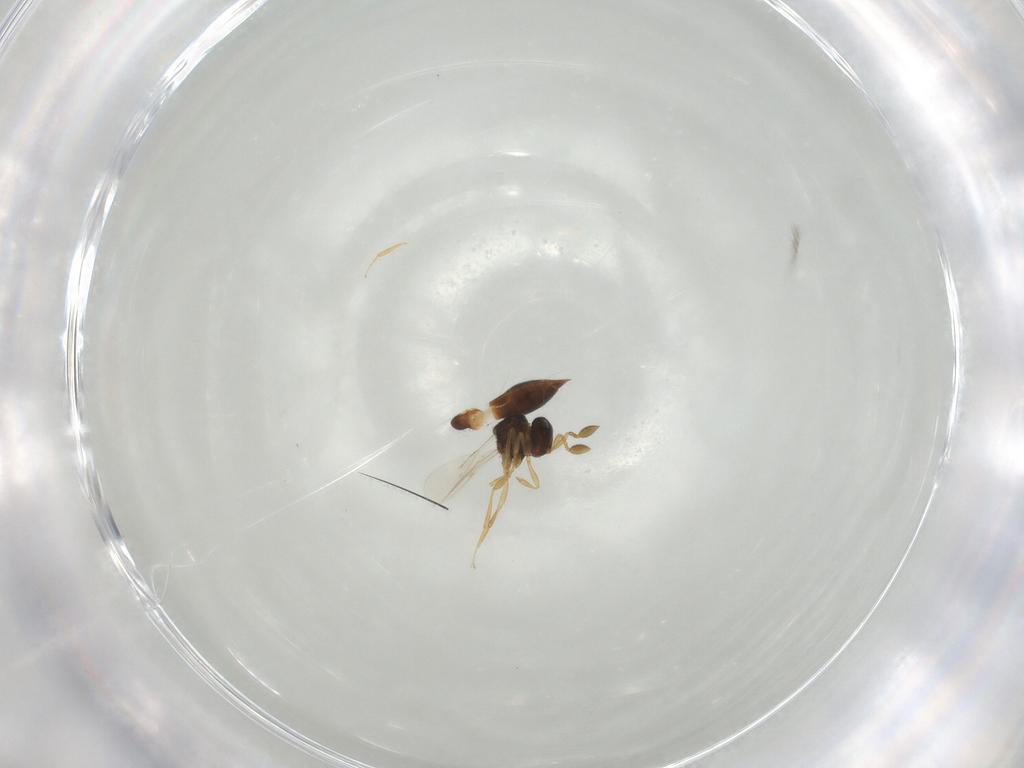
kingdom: Animalia
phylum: Arthropoda
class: Insecta
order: Hymenoptera
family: Scelionidae
